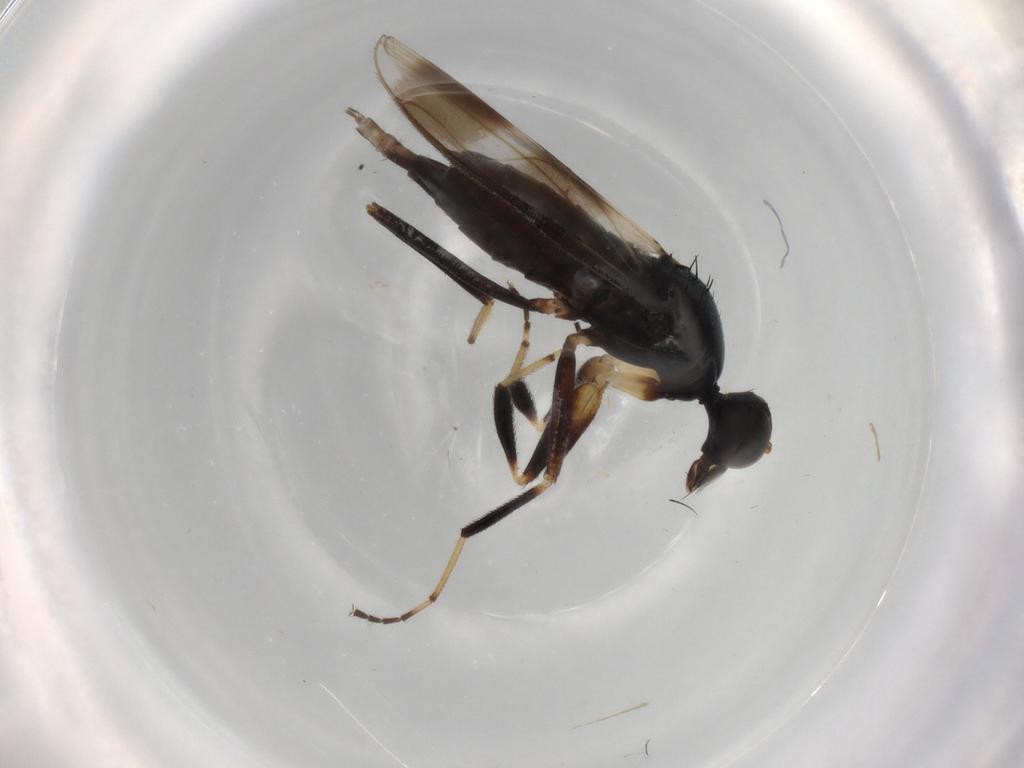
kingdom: Animalia
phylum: Arthropoda
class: Insecta
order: Diptera
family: Hybotidae
